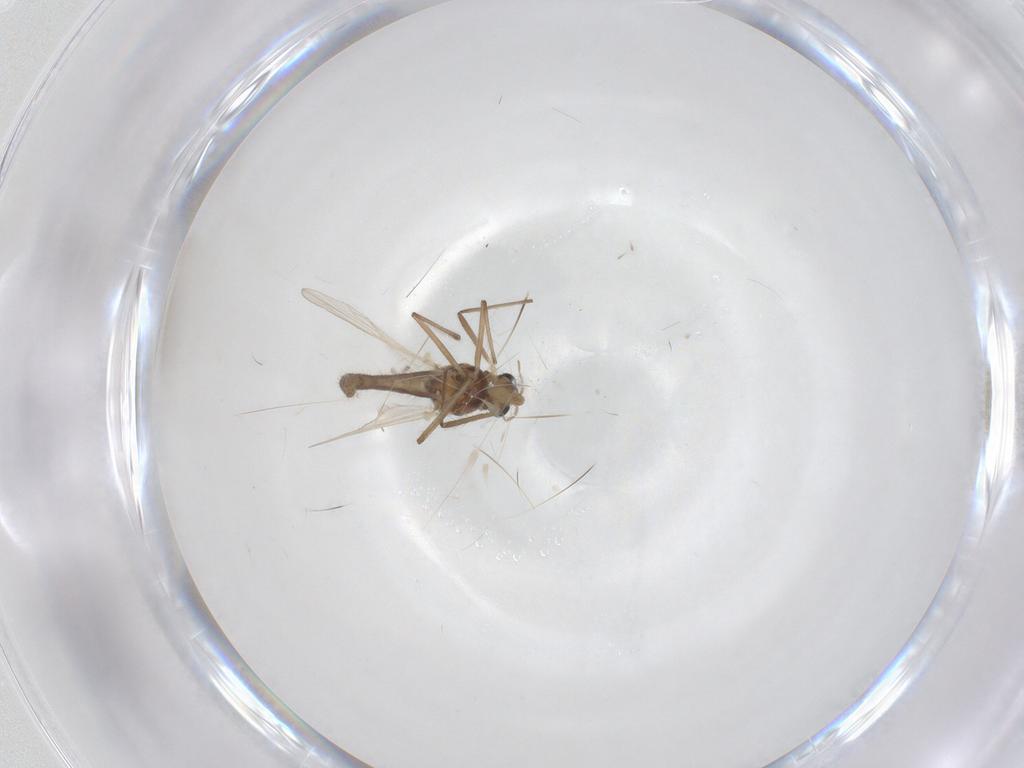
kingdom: Animalia
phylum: Arthropoda
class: Insecta
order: Diptera
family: Chironomidae
